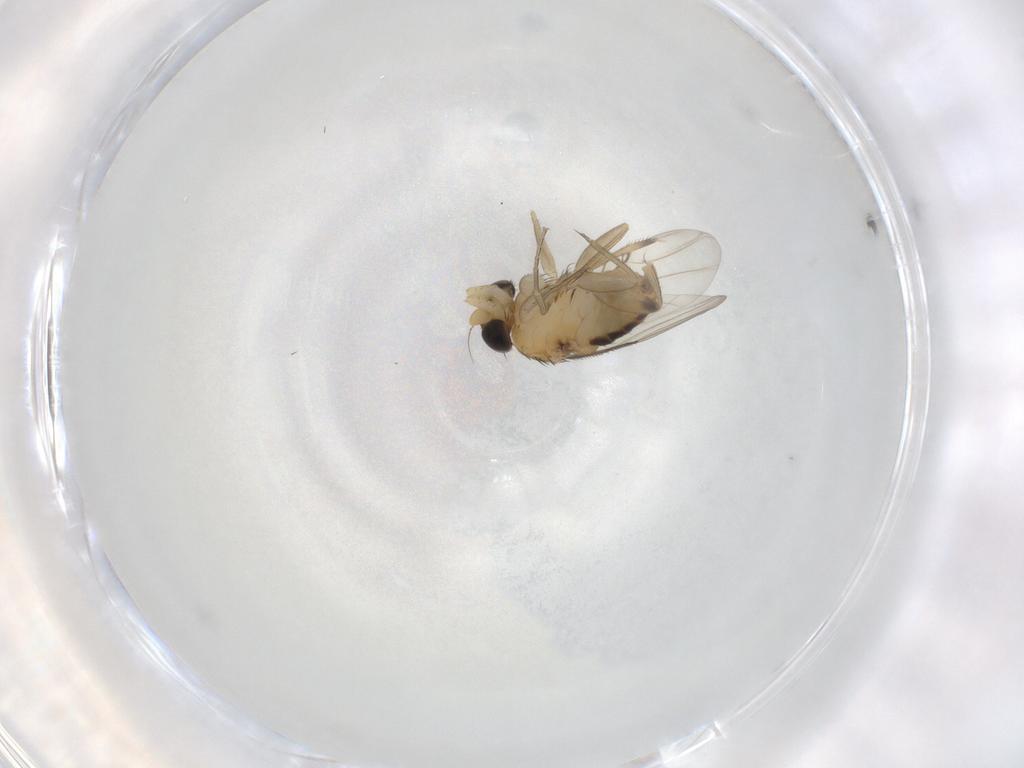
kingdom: Animalia
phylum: Arthropoda
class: Insecta
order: Diptera
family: Phoridae
